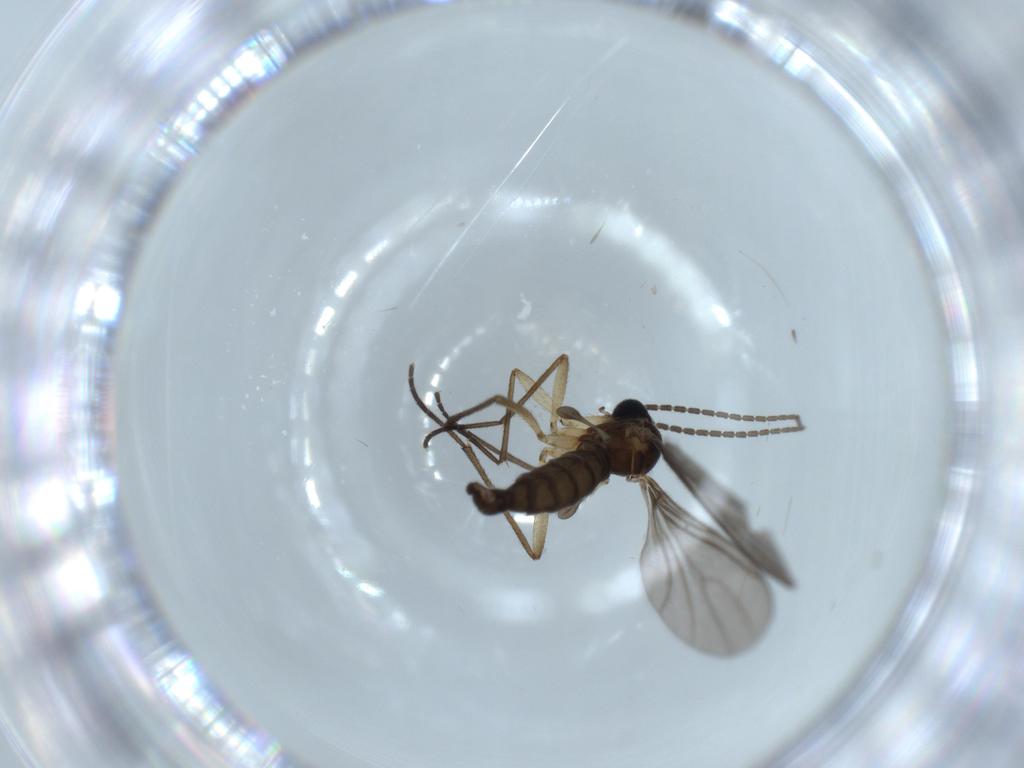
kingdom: Animalia
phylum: Arthropoda
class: Insecta
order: Diptera
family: Sciaridae
